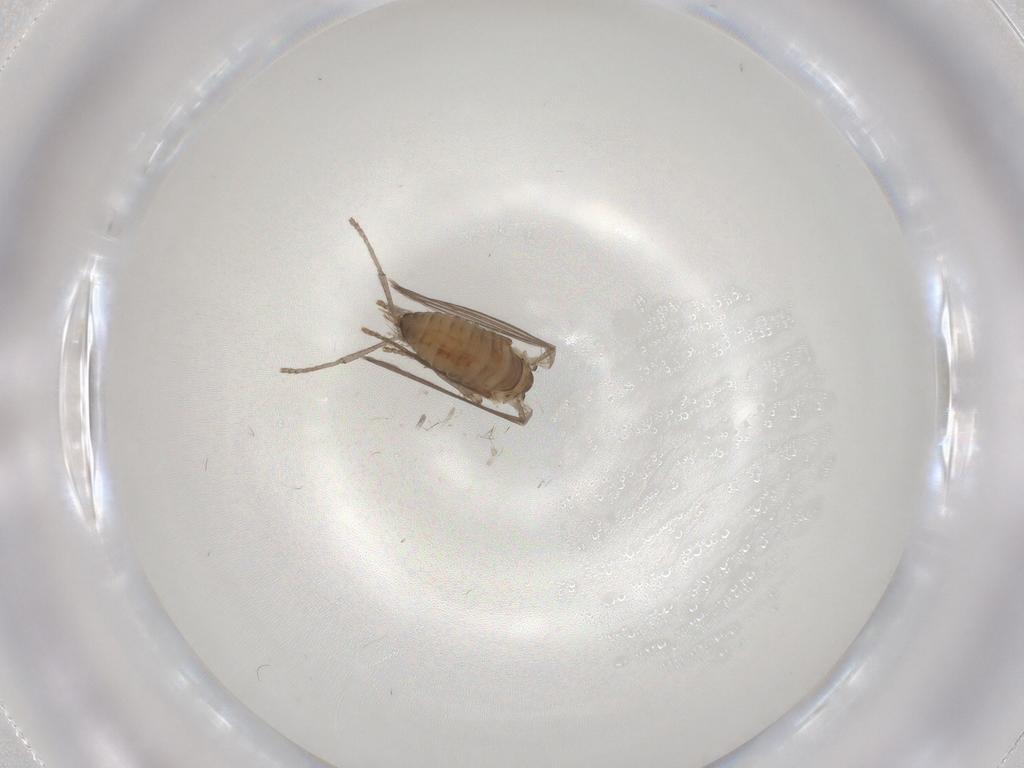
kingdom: Animalia
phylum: Arthropoda
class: Insecta
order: Diptera
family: Psychodidae
